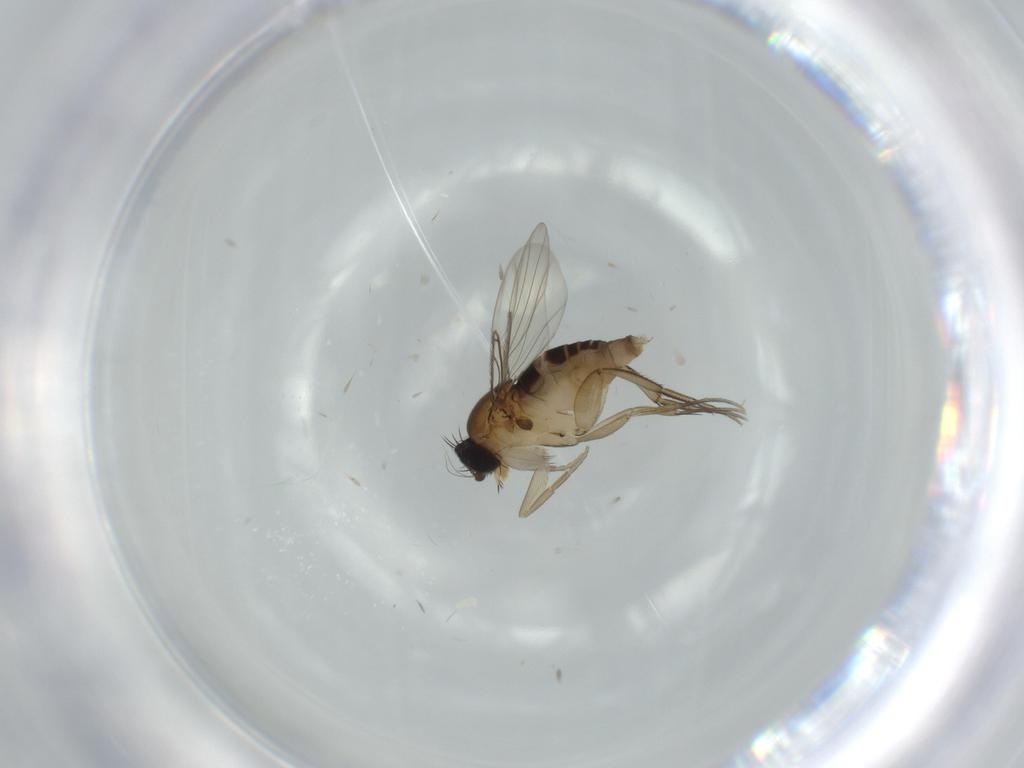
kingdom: Animalia
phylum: Arthropoda
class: Insecta
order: Diptera
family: Phoridae
